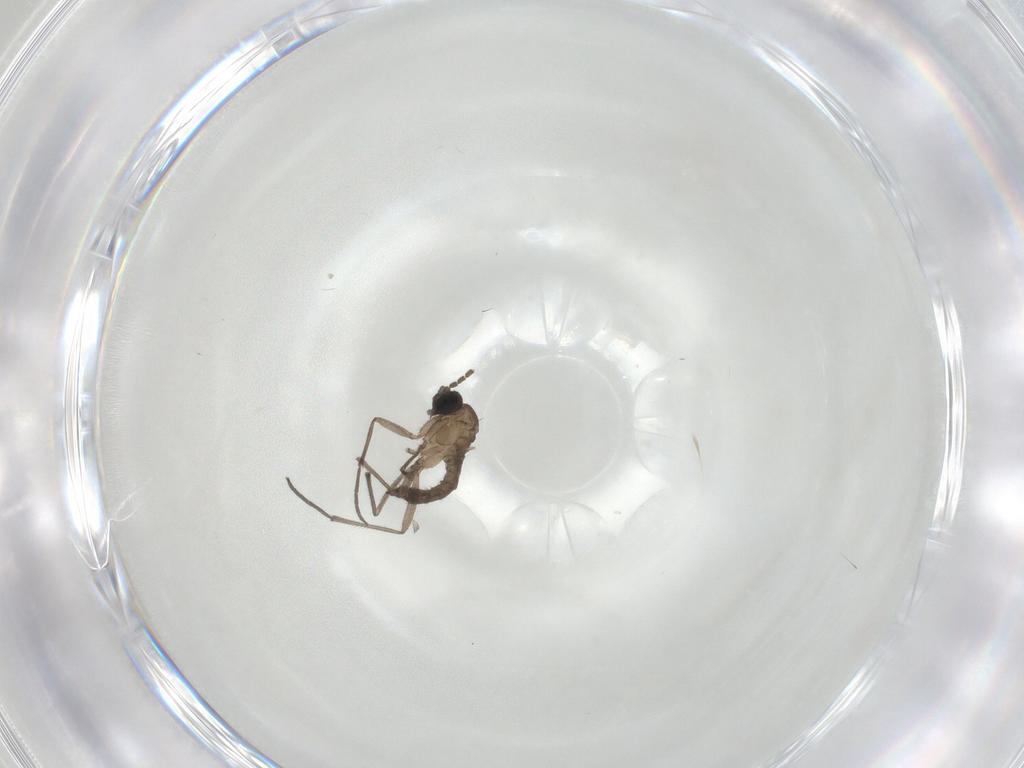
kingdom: Animalia
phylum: Arthropoda
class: Insecta
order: Diptera
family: Sciaridae
